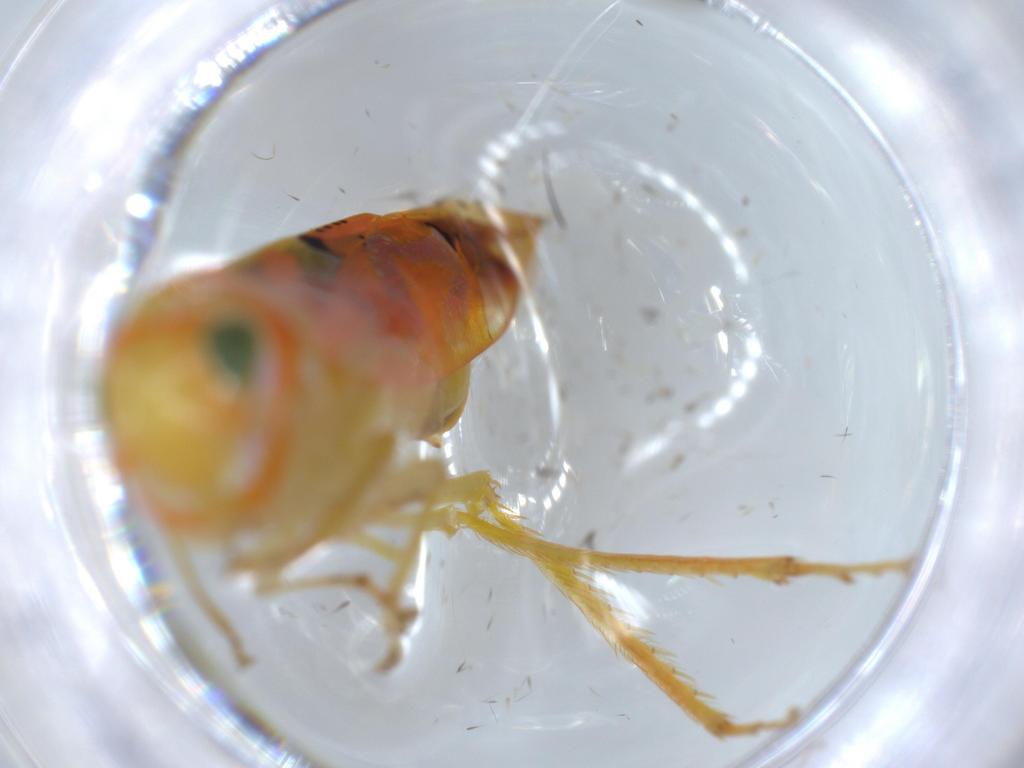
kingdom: Animalia
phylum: Arthropoda
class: Insecta
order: Hemiptera
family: Cicadellidae
